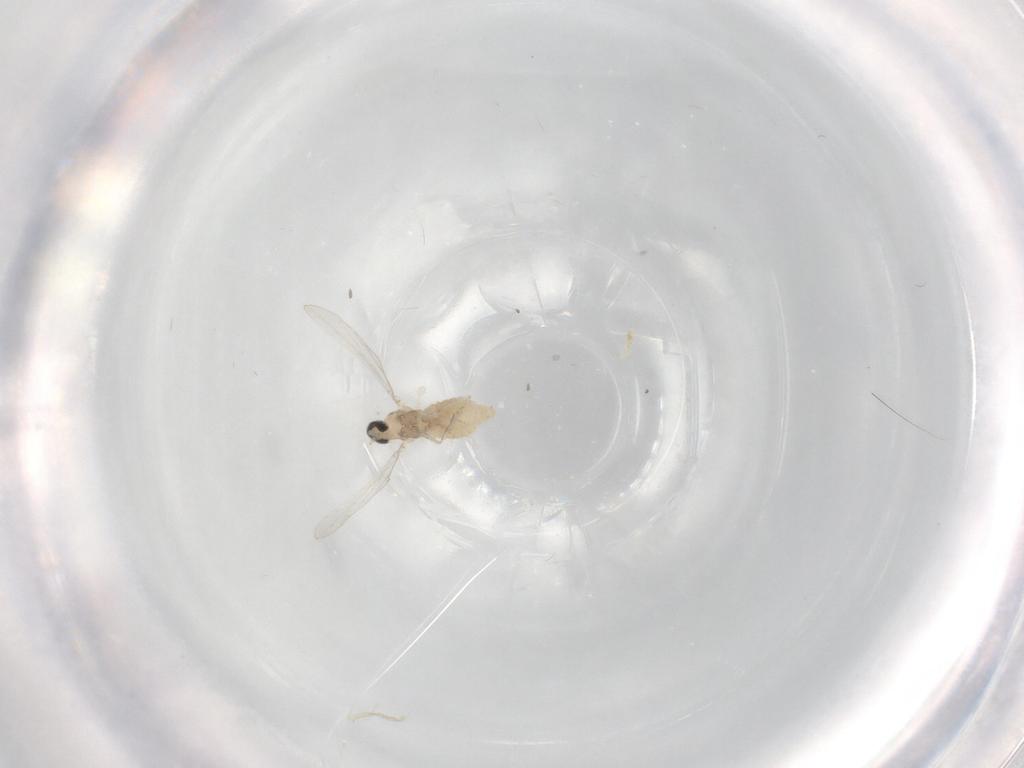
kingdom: Animalia
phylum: Arthropoda
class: Insecta
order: Diptera
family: Cecidomyiidae
